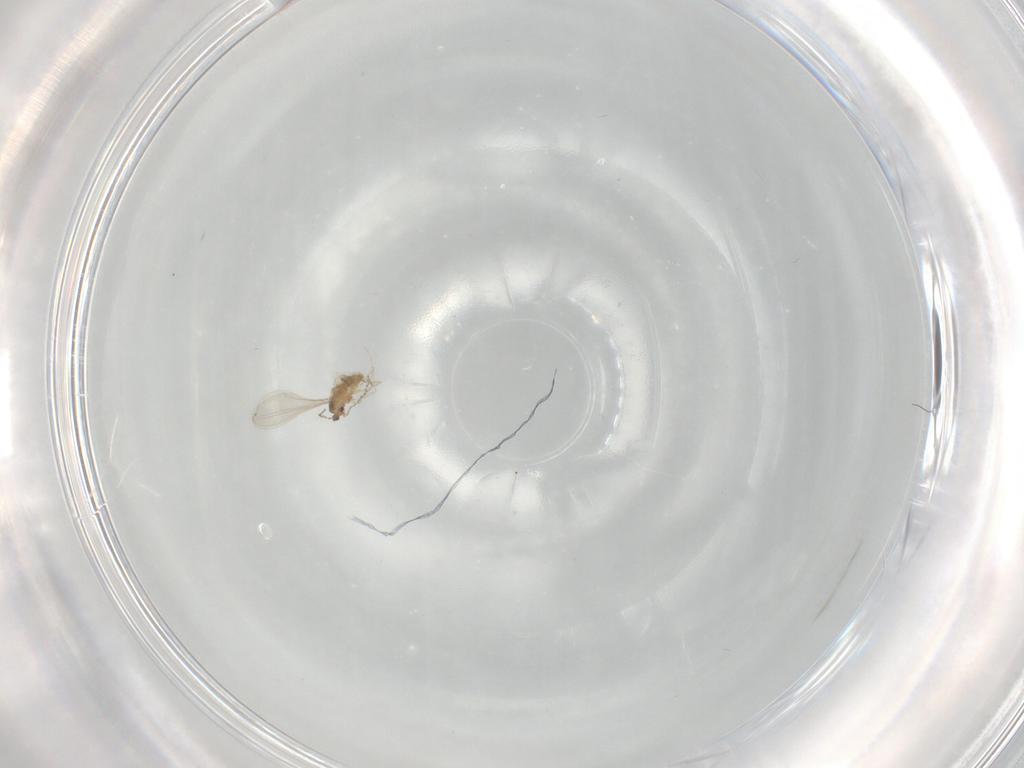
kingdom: Animalia
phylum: Arthropoda
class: Insecta
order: Diptera
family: Cecidomyiidae
